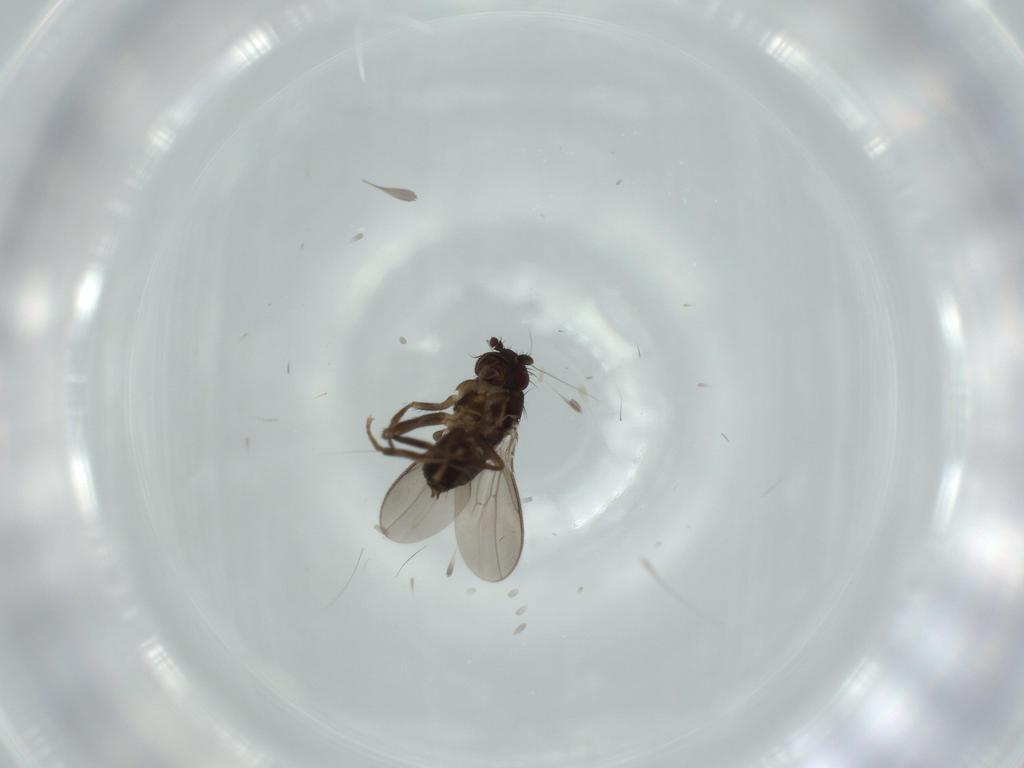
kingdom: Animalia
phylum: Arthropoda
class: Insecta
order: Diptera
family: Sphaeroceridae
